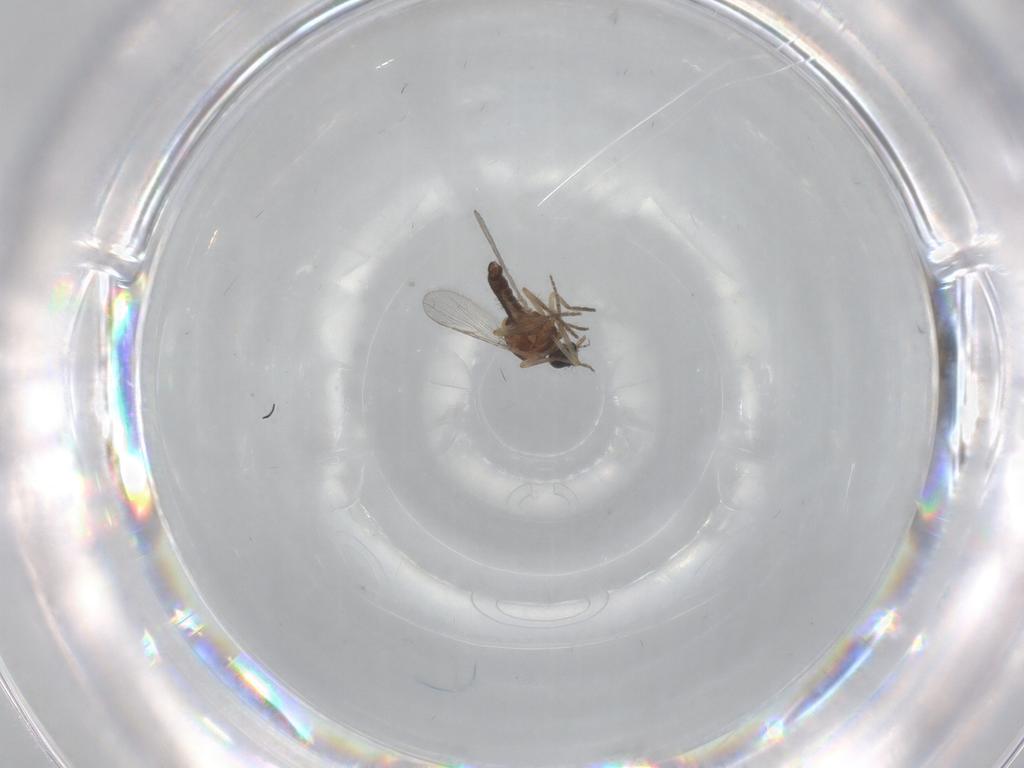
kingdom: Animalia
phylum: Arthropoda
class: Insecta
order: Diptera
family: Ceratopogonidae
